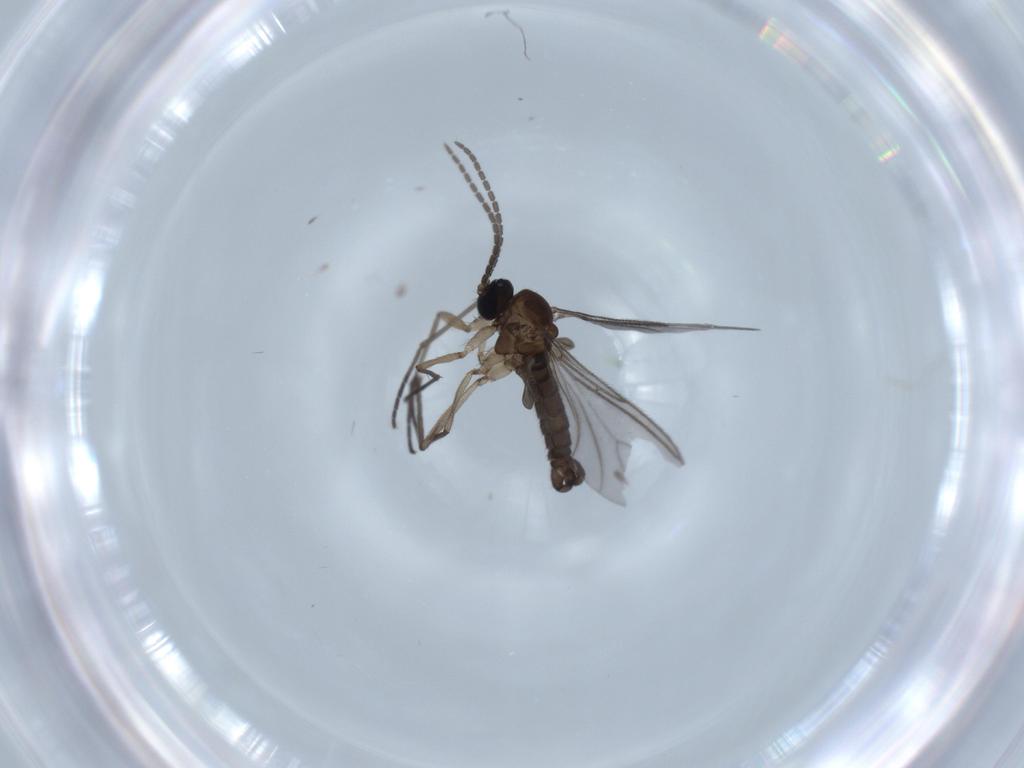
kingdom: Animalia
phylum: Arthropoda
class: Insecta
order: Diptera
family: Sciaridae
